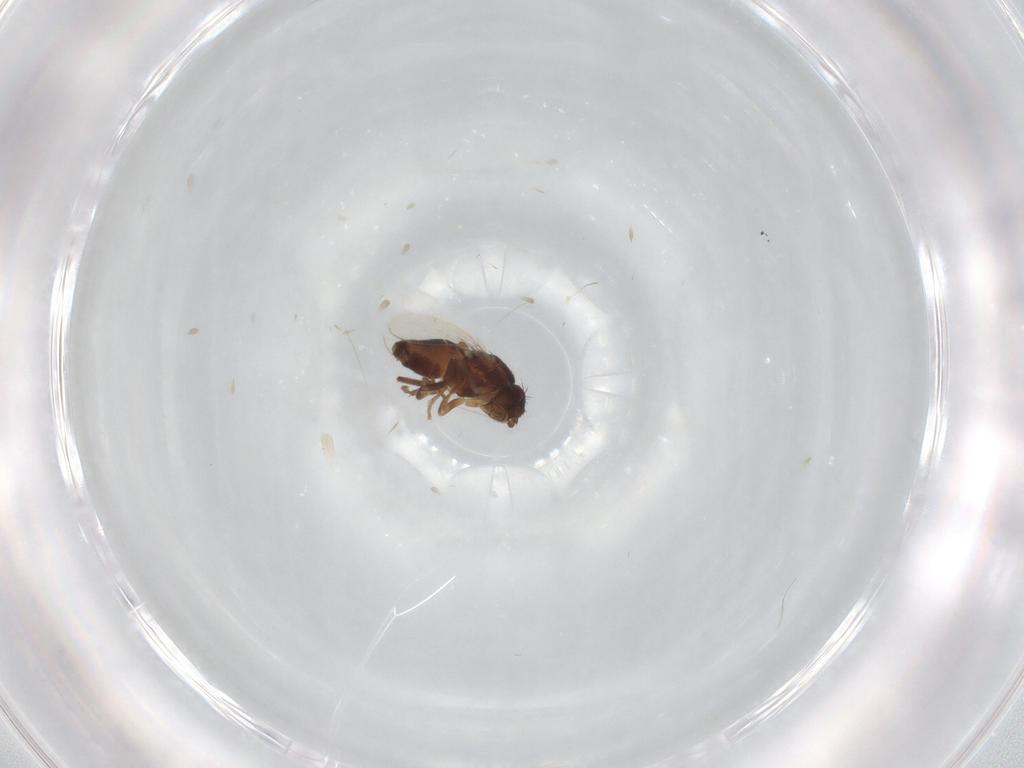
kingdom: Animalia
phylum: Arthropoda
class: Insecta
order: Diptera
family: Sphaeroceridae
